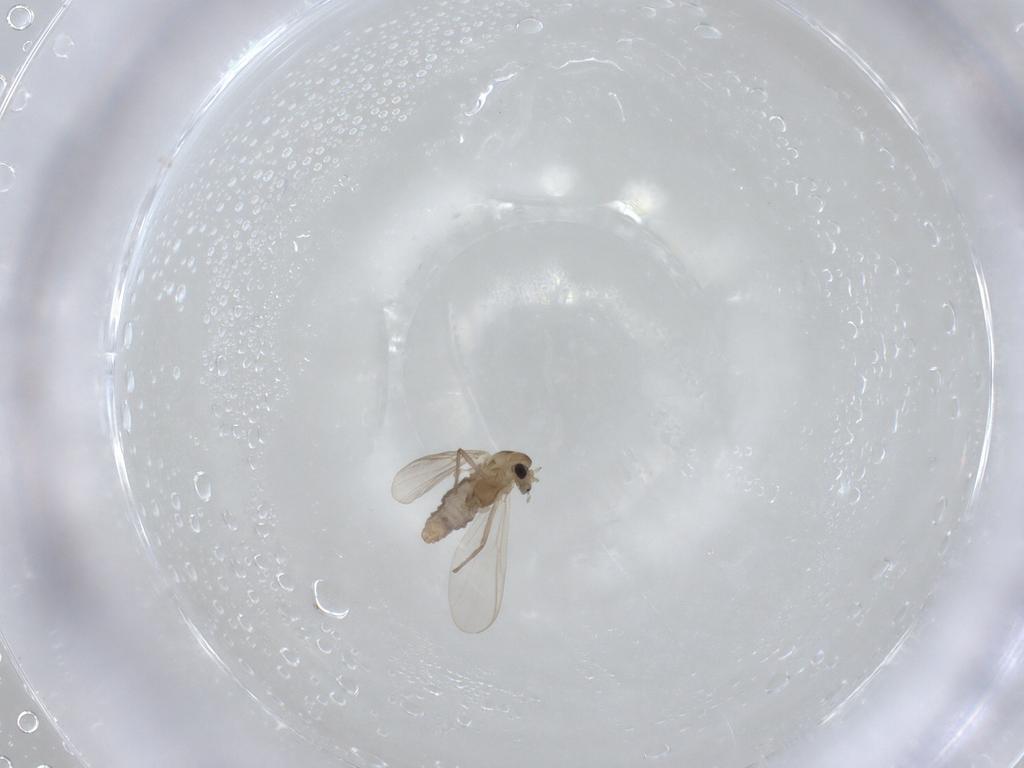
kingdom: Animalia
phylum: Arthropoda
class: Insecta
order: Diptera
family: Chironomidae
